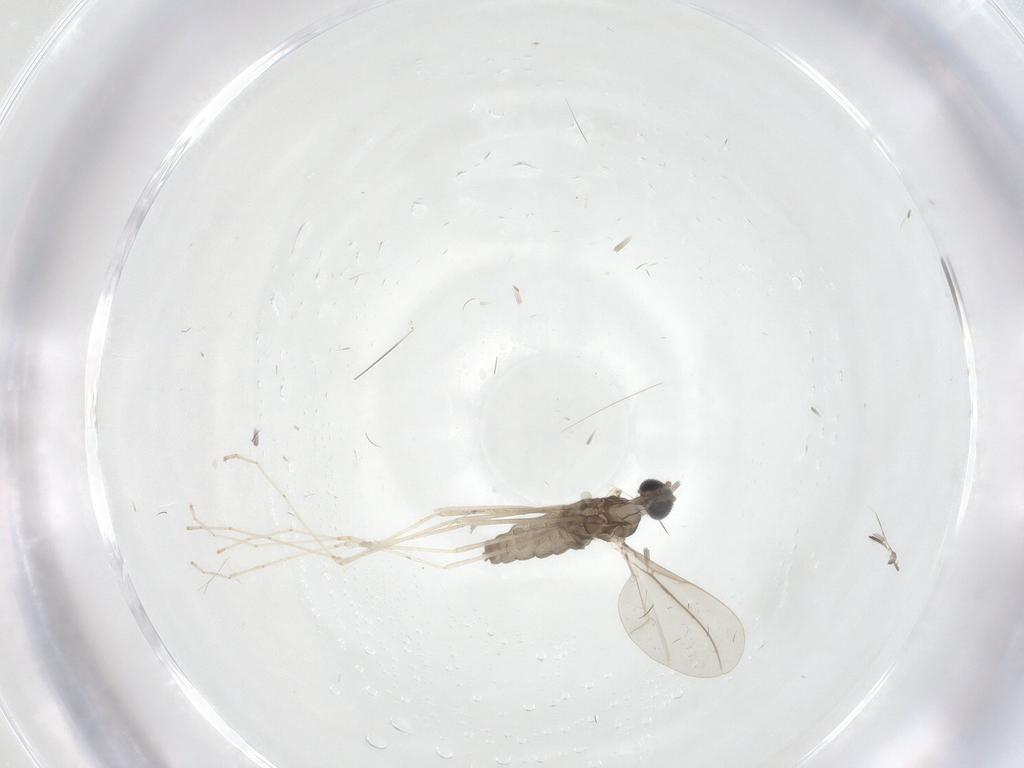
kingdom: Animalia
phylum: Arthropoda
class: Insecta
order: Diptera
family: Cecidomyiidae
